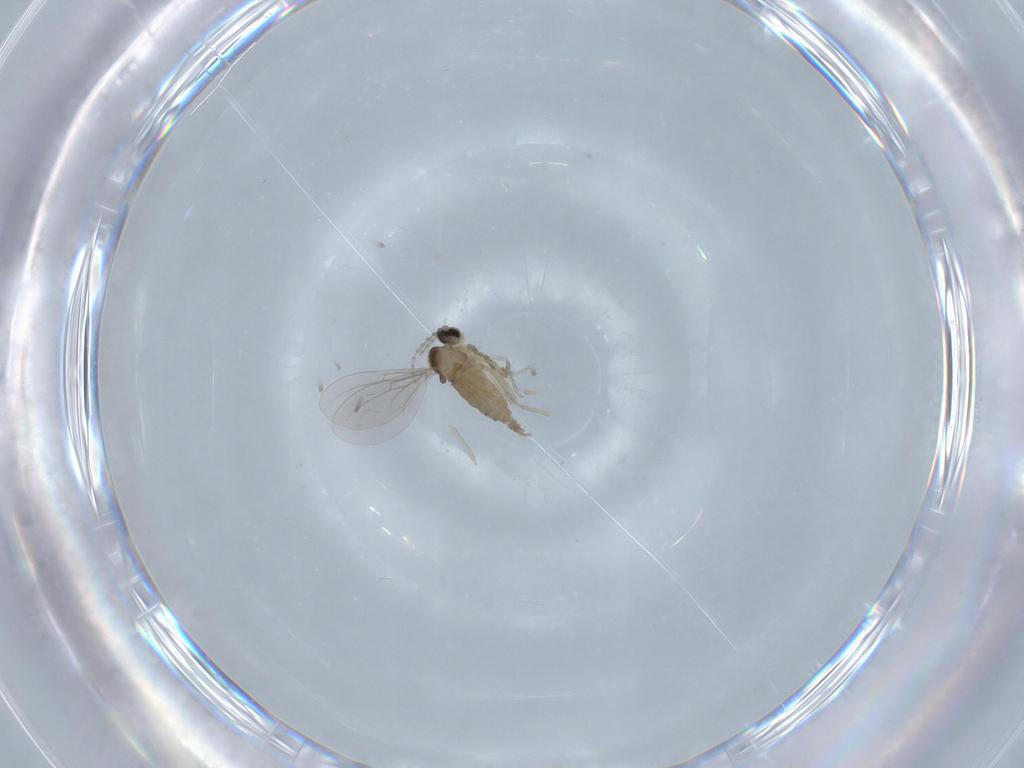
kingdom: Animalia
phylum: Arthropoda
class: Insecta
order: Diptera
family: Cecidomyiidae
